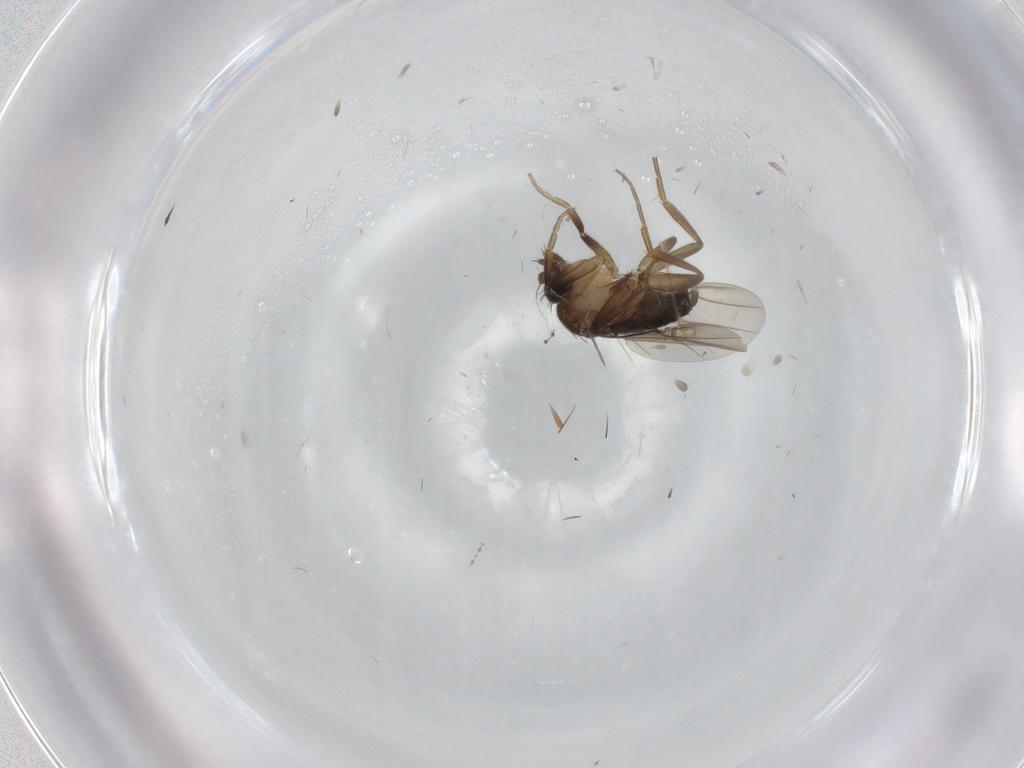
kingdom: Animalia
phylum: Arthropoda
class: Insecta
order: Diptera
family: Phoridae
